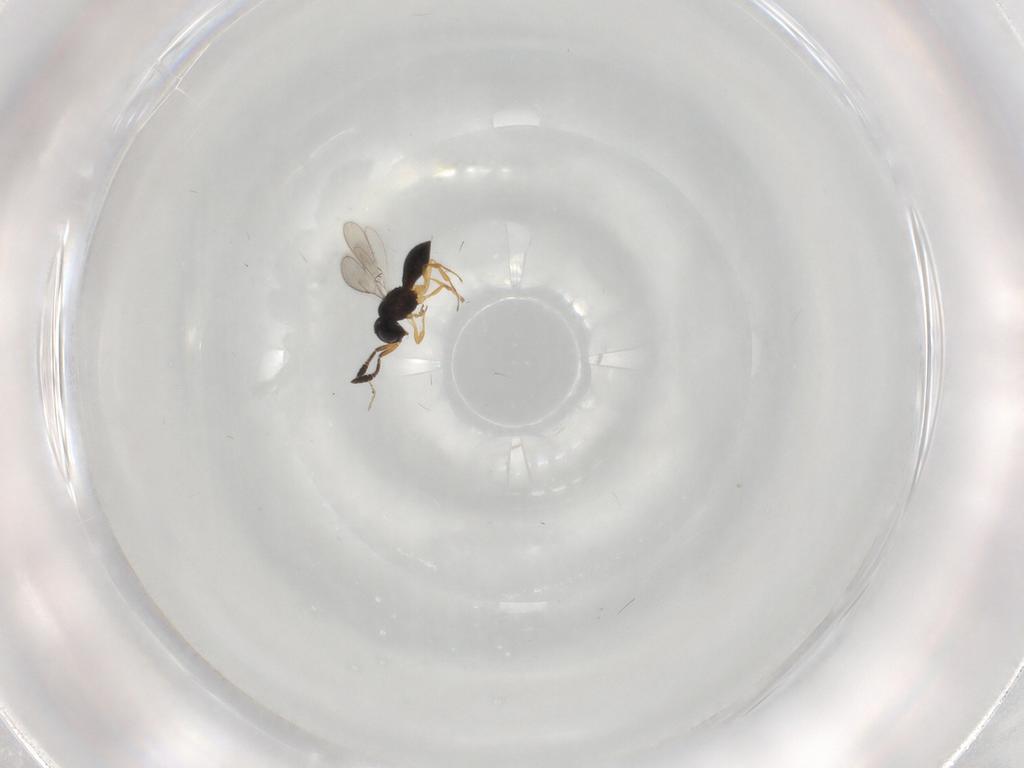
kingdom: Animalia
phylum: Arthropoda
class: Insecta
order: Hymenoptera
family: Scelionidae
